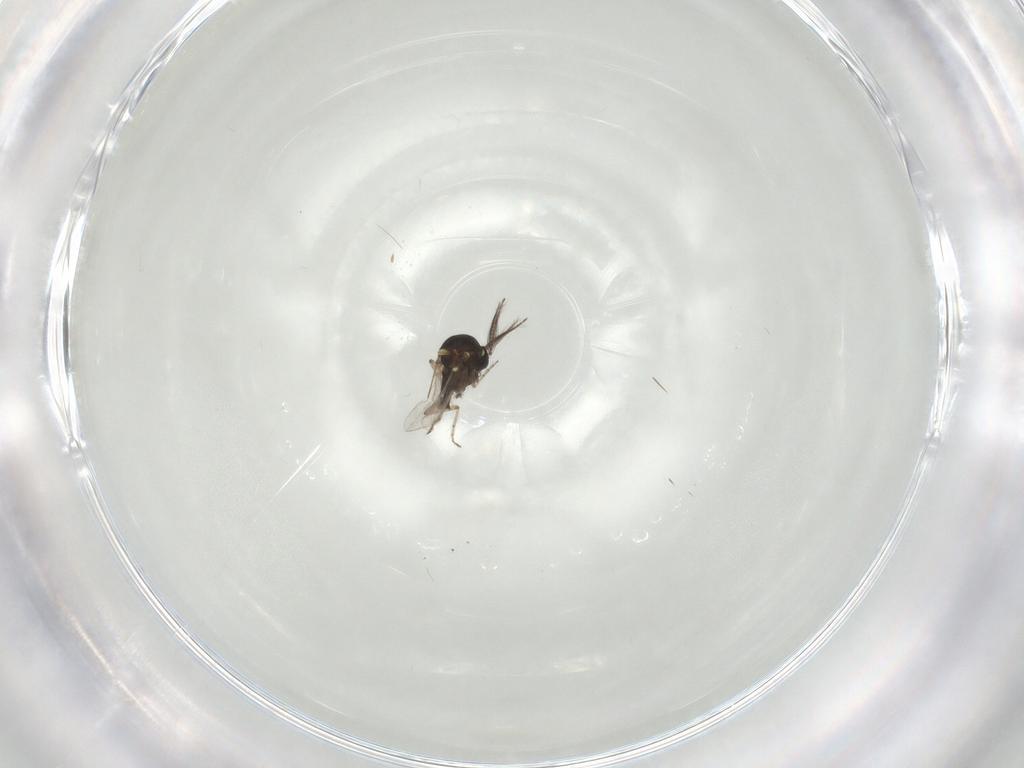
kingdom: Animalia
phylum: Arthropoda
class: Insecta
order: Diptera
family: Ceratopogonidae
